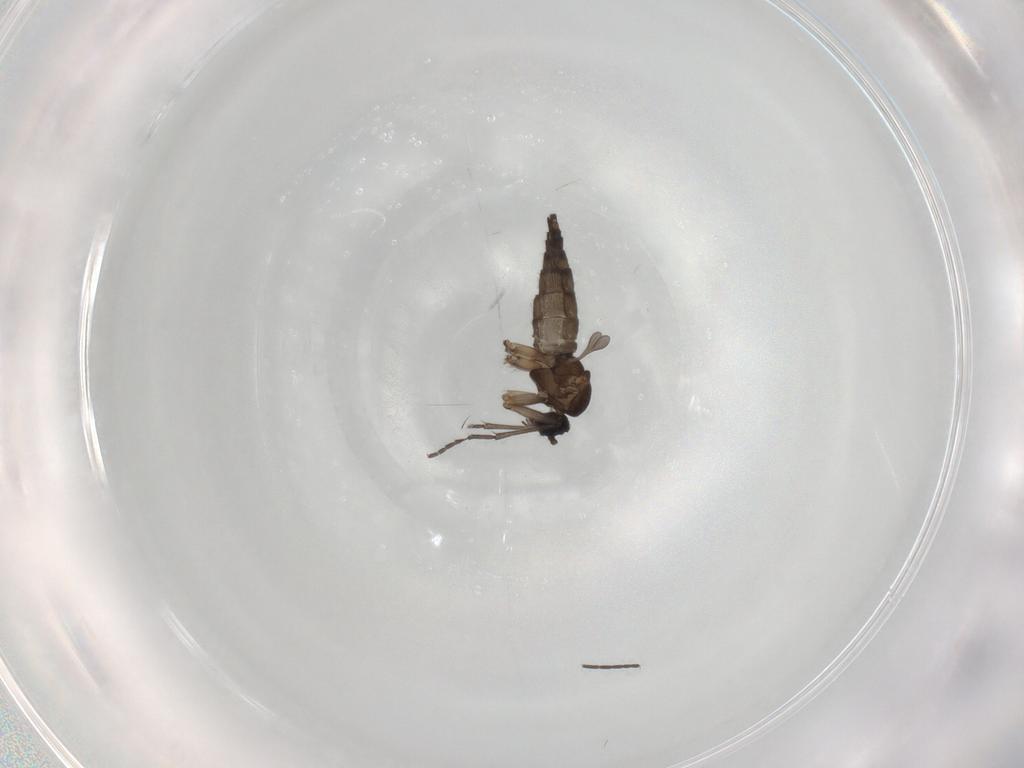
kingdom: Animalia
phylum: Arthropoda
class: Insecta
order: Diptera
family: Sciaridae
